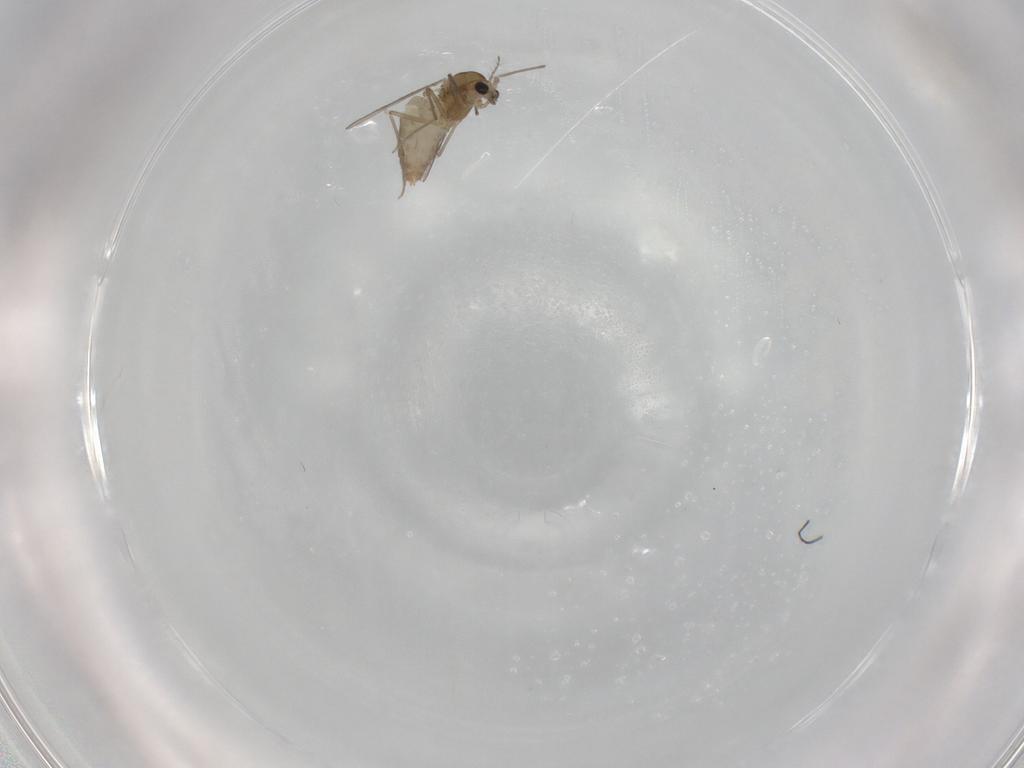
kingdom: Animalia
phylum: Arthropoda
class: Insecta
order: Diptera
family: Chironomidae
